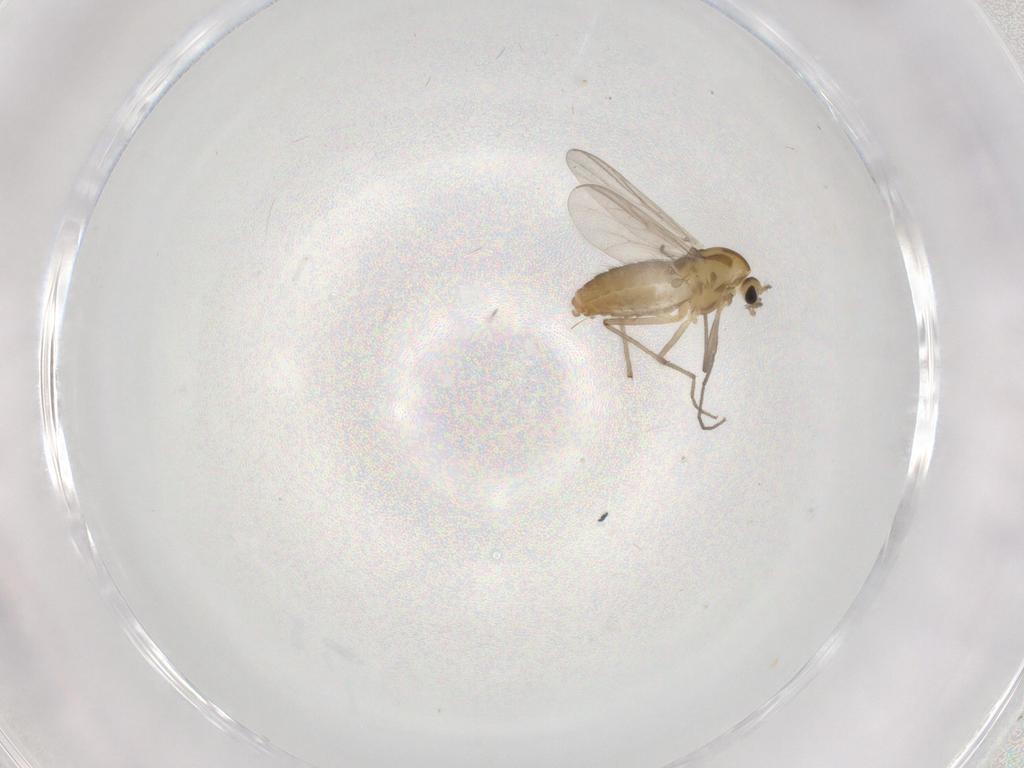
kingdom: Animalia
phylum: Arthropoda
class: Insecta
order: Diptera
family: Chironomidae
